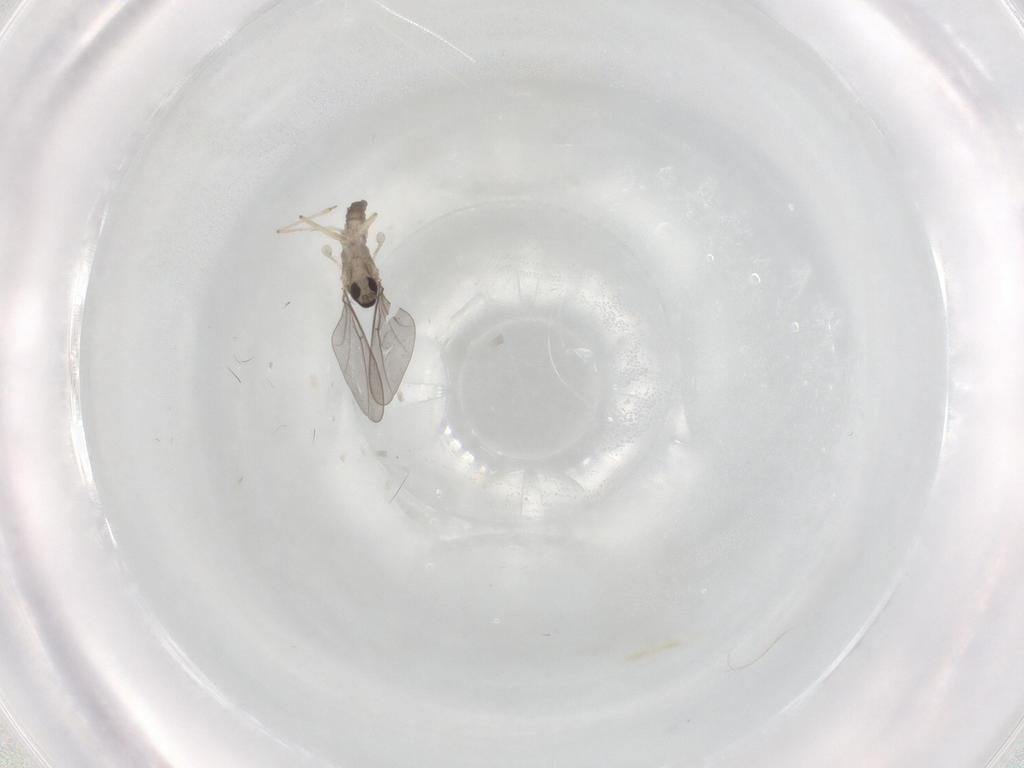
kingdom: Animalia
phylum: Arthropoda
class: Insecta
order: Diptera
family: Cecidomyiidae
